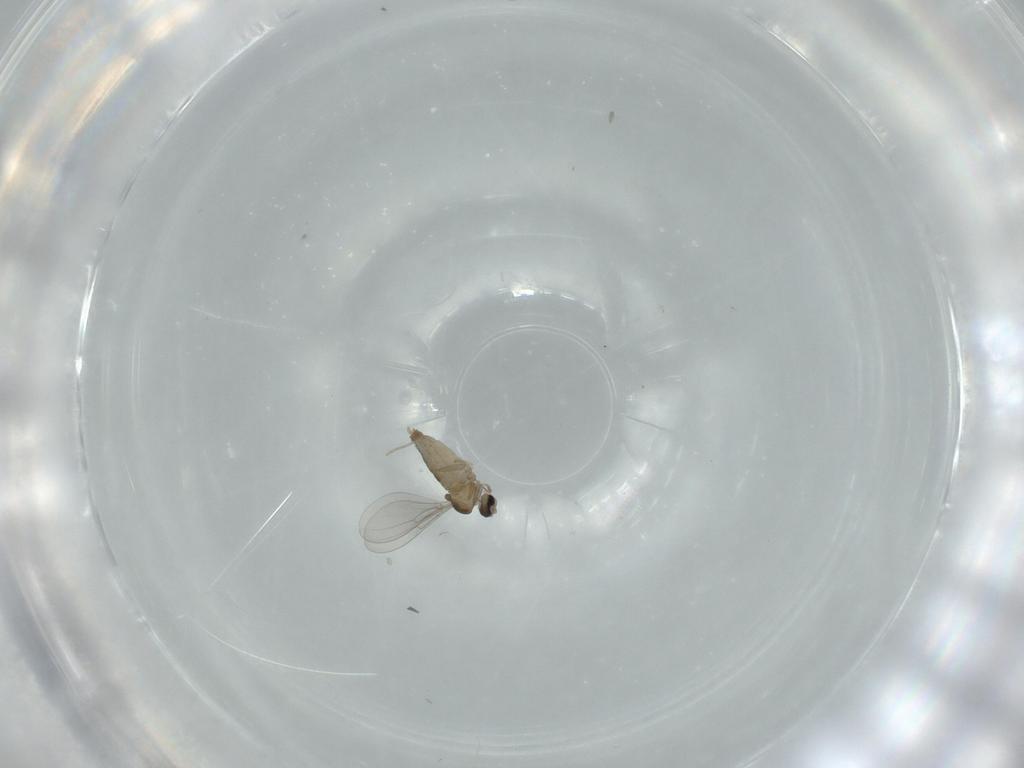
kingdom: Animalia
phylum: Arthropoda
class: Insecta
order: Diptera
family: Cecidomyiidae
